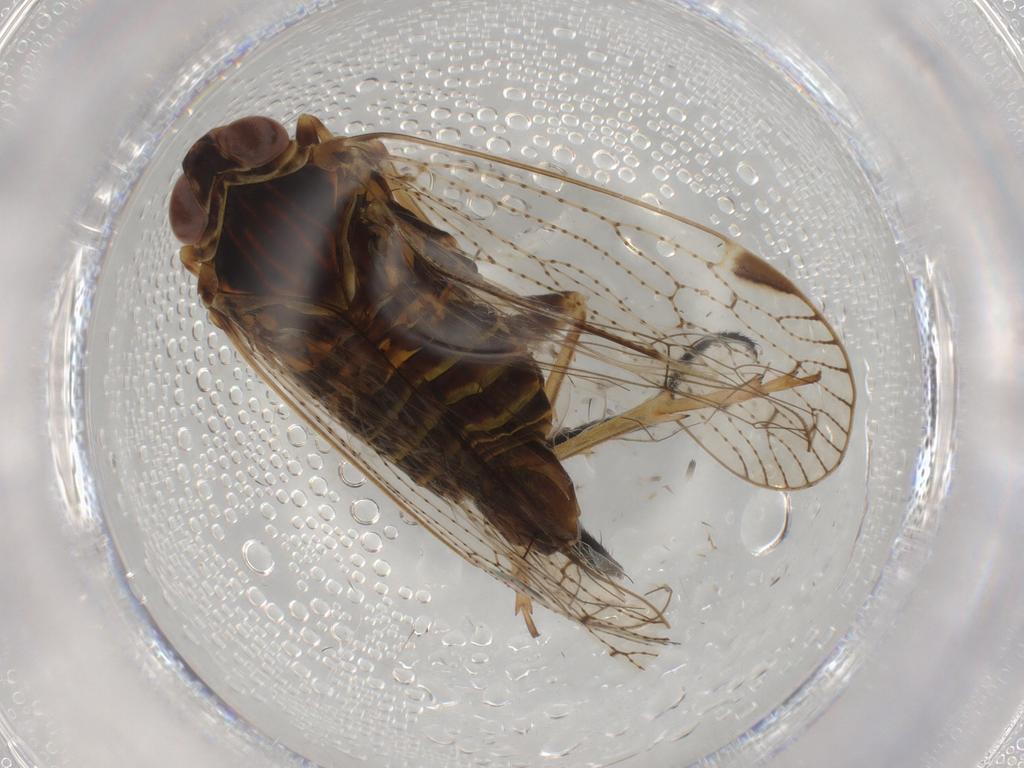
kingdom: Animalia
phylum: Arthropoda
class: Insecta
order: Hemiptera
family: Cixiidae
